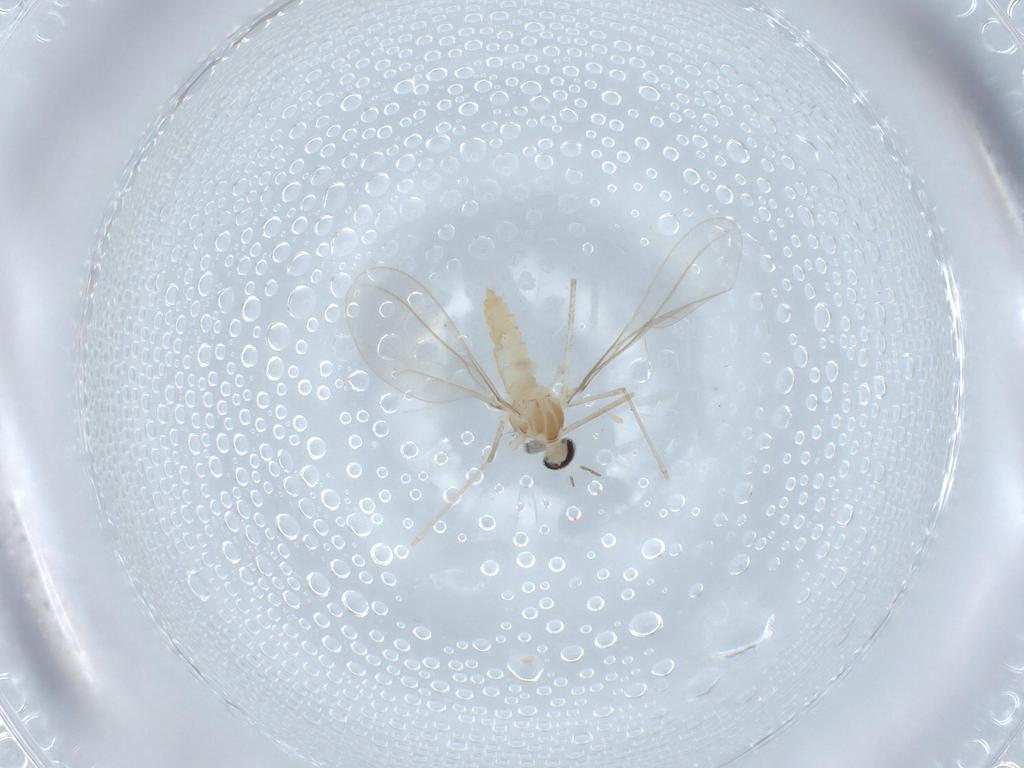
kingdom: Animalia
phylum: Arthropoda
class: Insecta
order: Diptera
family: Cecidomyiidae
